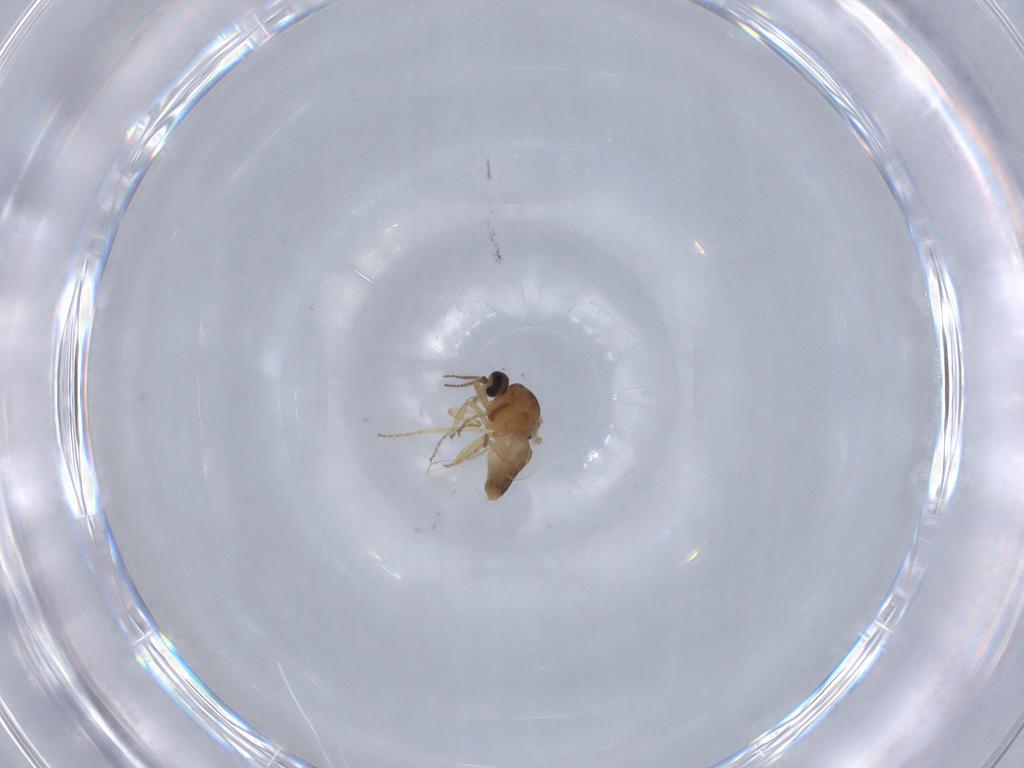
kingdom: Animalia
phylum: Arthropoda
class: Insecta
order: Diptera
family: Ceratopogonidae
